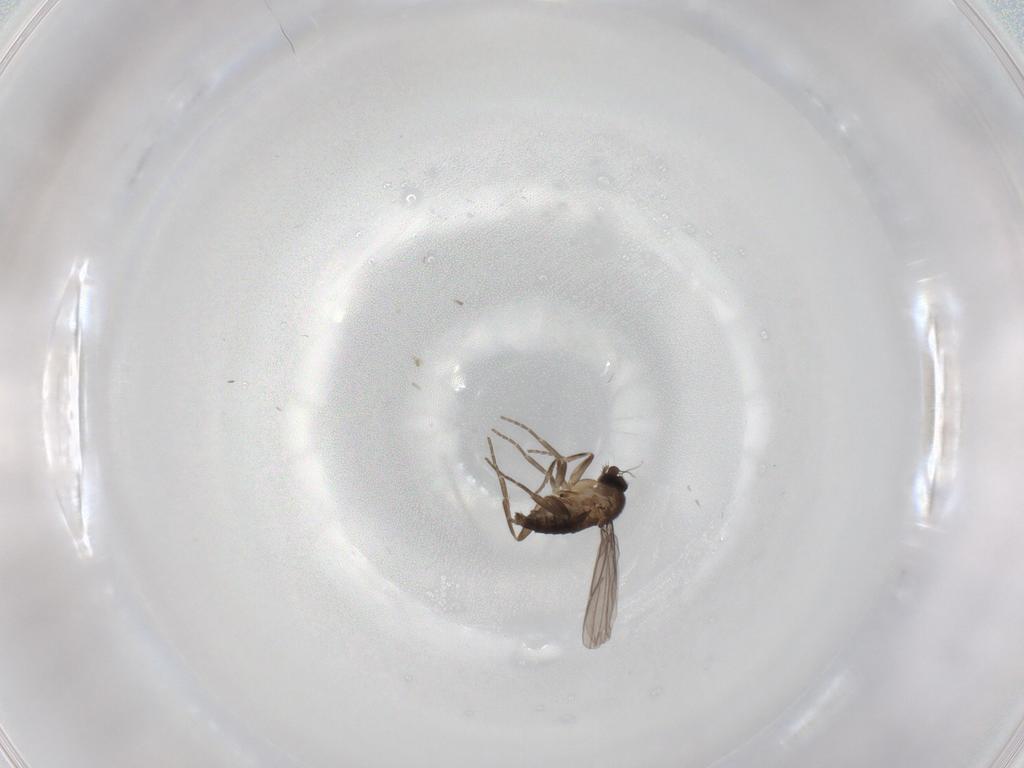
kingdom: Animalia
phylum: Arthropoda
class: Insecta
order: Diptera
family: Phoridae
